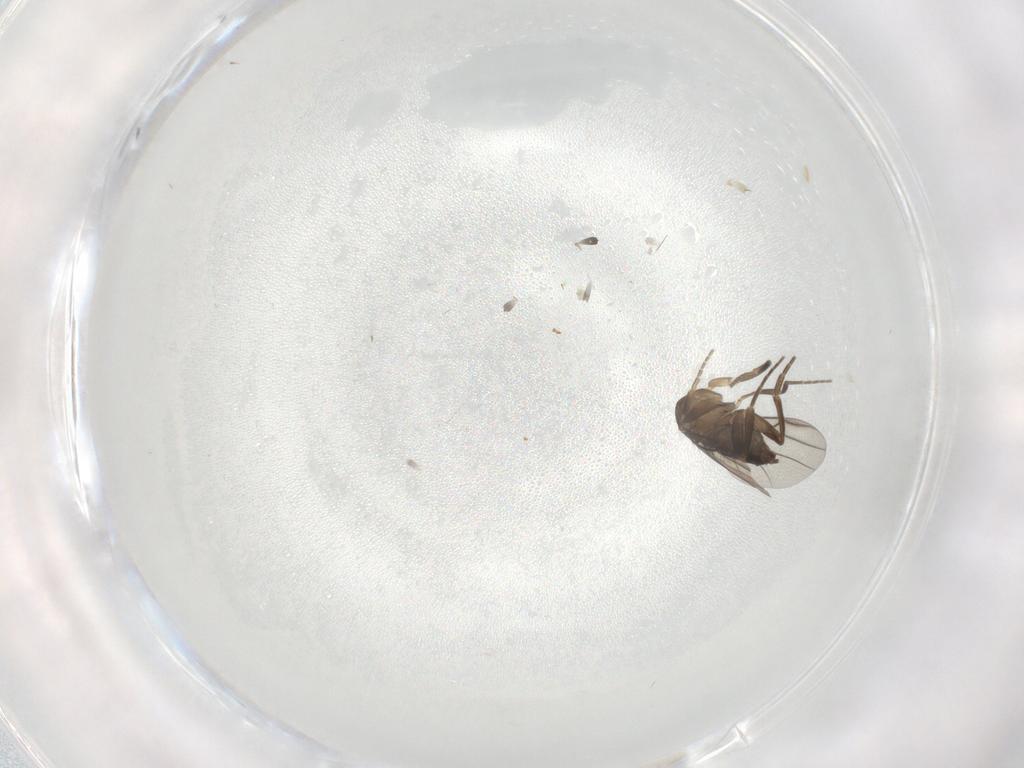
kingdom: Animalia
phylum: Arthropoda
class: Insecta
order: Diptera
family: Phoridae
